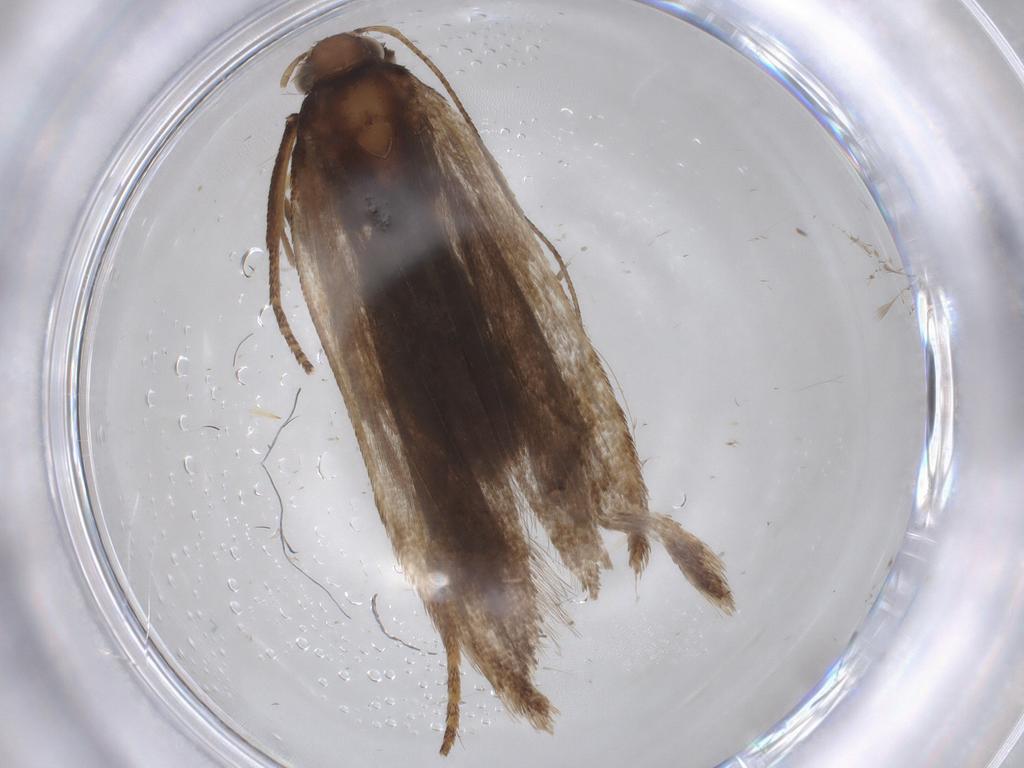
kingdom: Animalia
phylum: Arthropoda
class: Insecta
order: Lepidoptera
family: Gelechiidae
